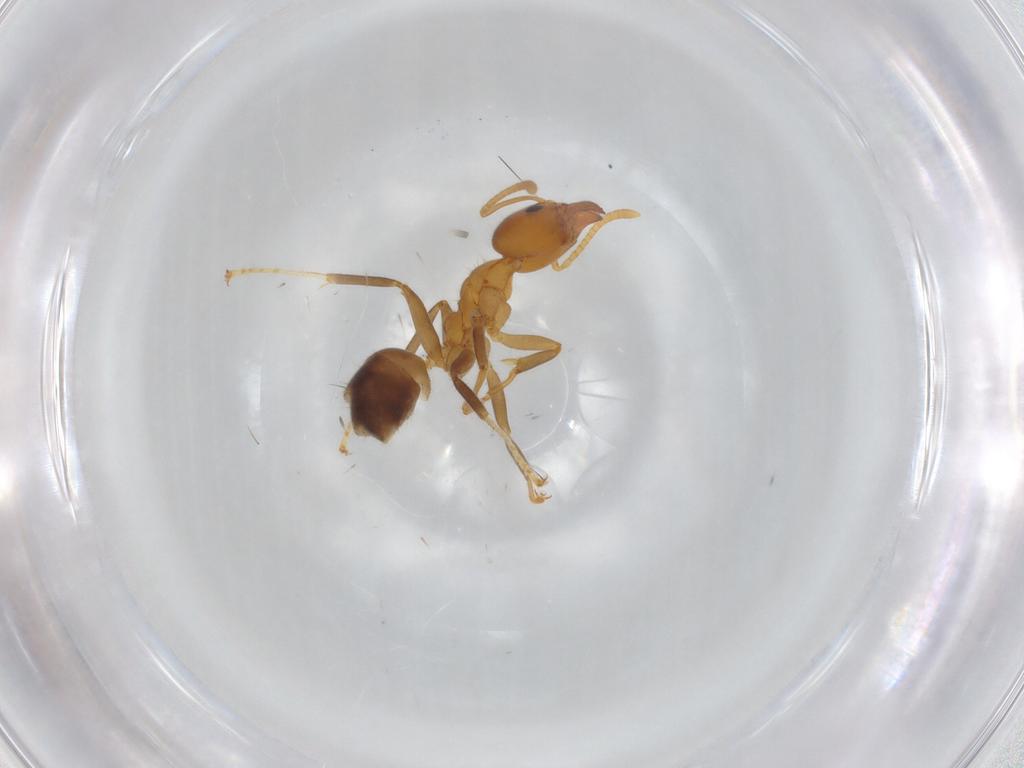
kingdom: Animalia
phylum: Arthropoda
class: Insecta
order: Hymenoptera
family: Formicidae
